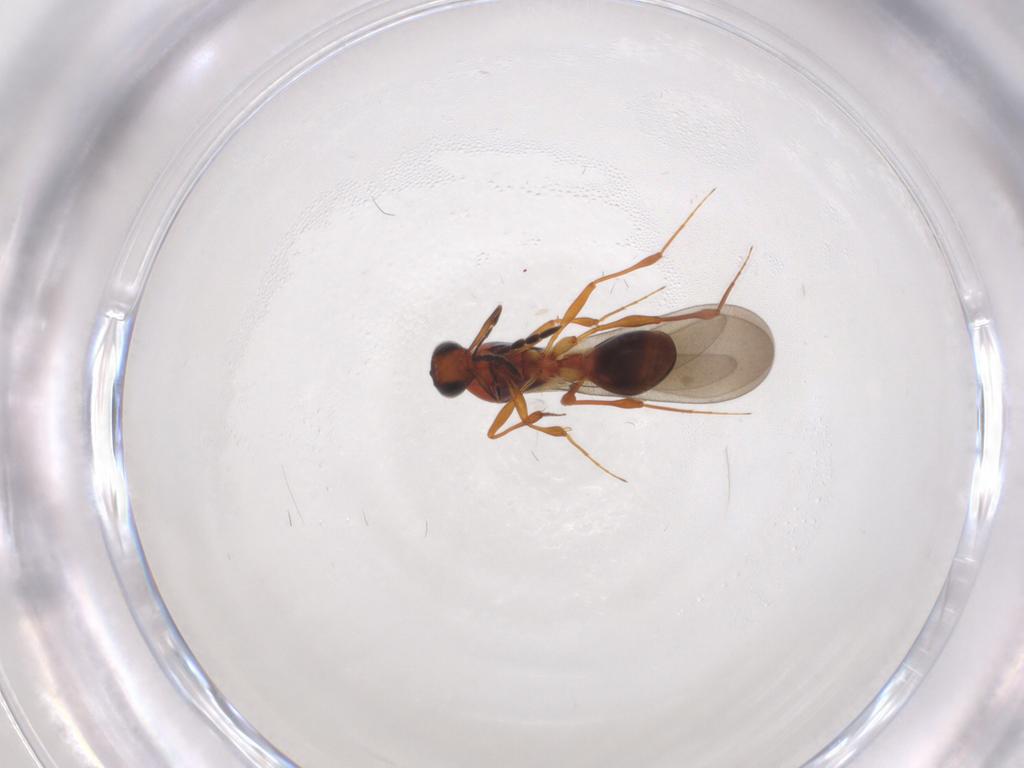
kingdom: Animalia
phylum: Arthropoda
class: Insecta
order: Hymenoptera
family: Platygastridae
